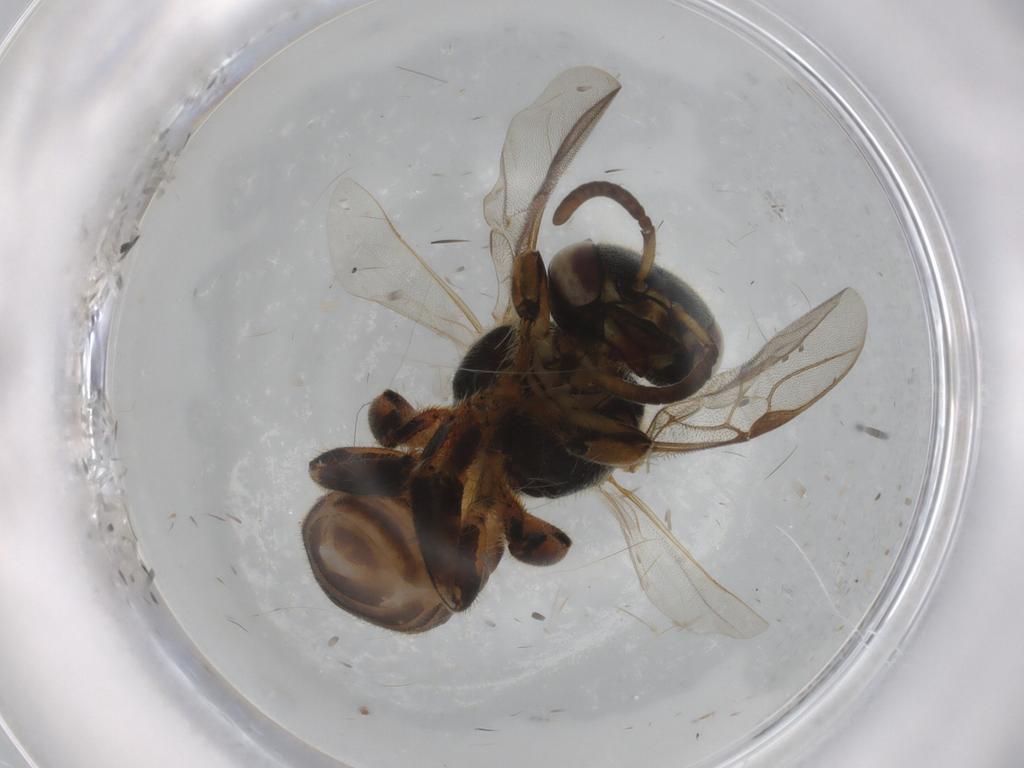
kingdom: Animalia
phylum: Arthropoda
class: Insecta
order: Hymenoptera
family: Apidae
